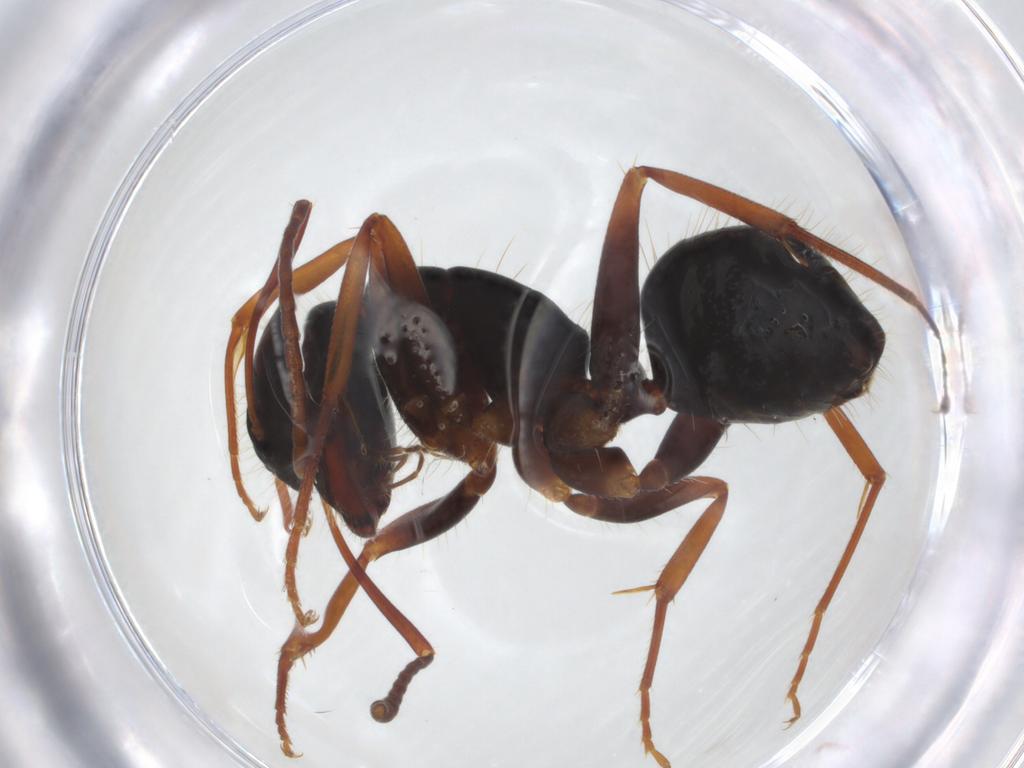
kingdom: Animalia
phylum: Arthropoda
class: Insecta
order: Hymenoptera
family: Formicidae
